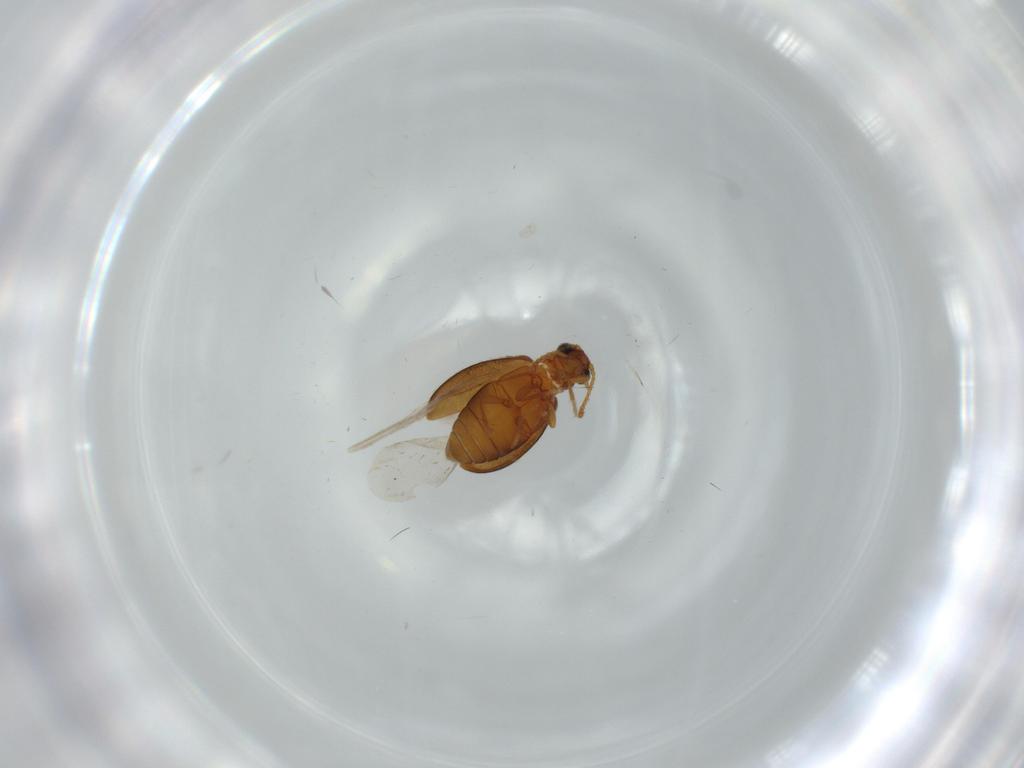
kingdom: Animalia
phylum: Arthropoda
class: Insecta
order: Coleoptera
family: Aderidae
